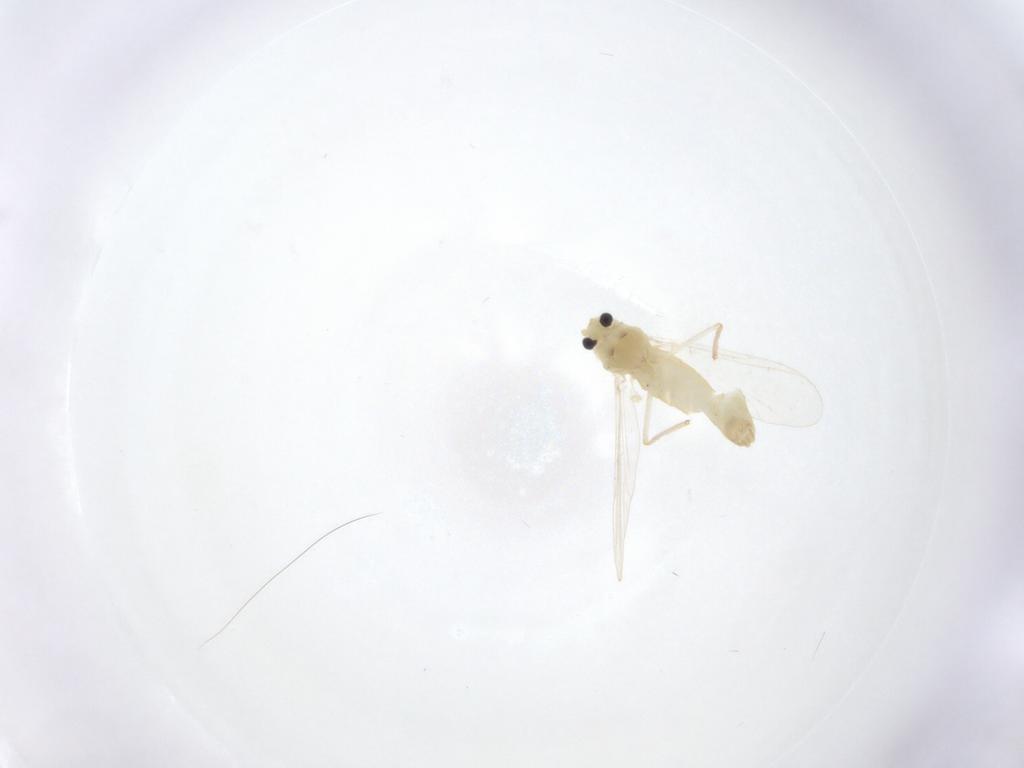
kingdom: Animalia
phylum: Arthropoda
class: Insecta
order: Diptera
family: Chironomidae
